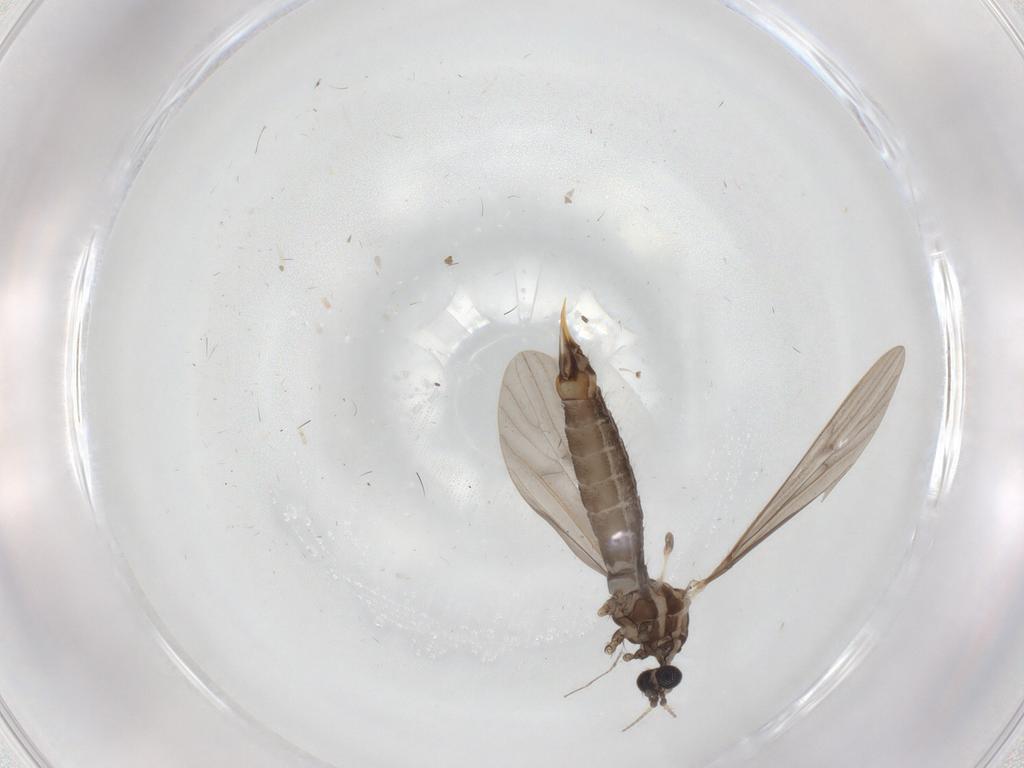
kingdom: Animalia
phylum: Arthropoda
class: Insecta
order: Diptera
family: Limoniidae
